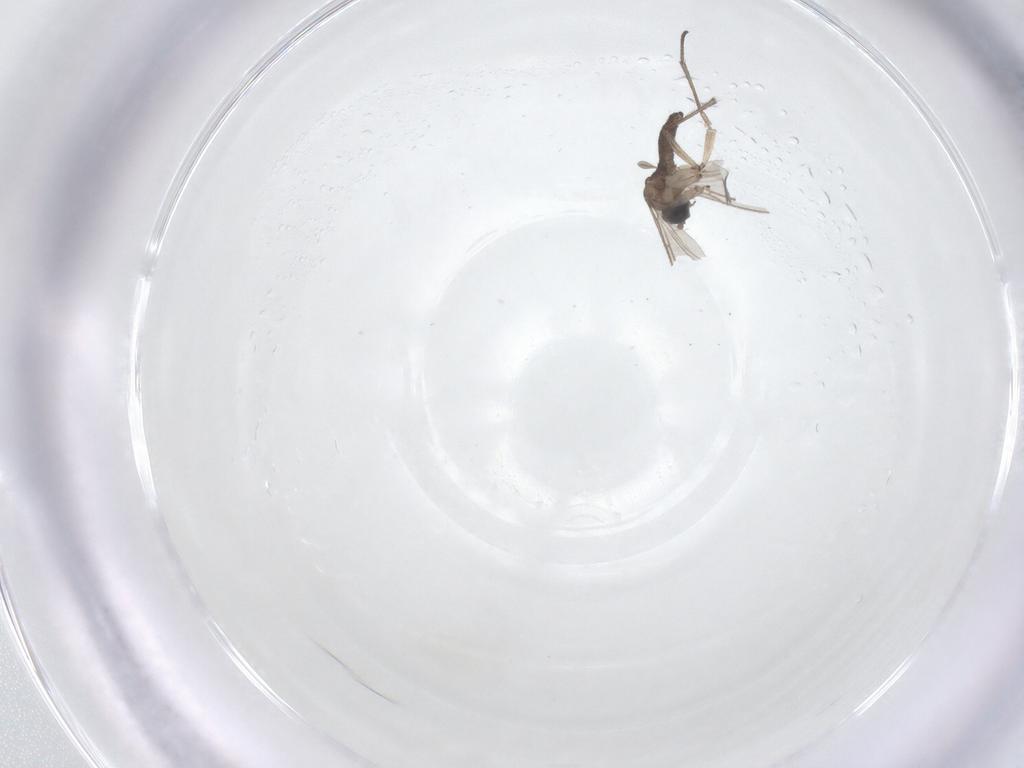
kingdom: Animalia
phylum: Arthropoda
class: Insecta
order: Diptera
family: Sciaridae
